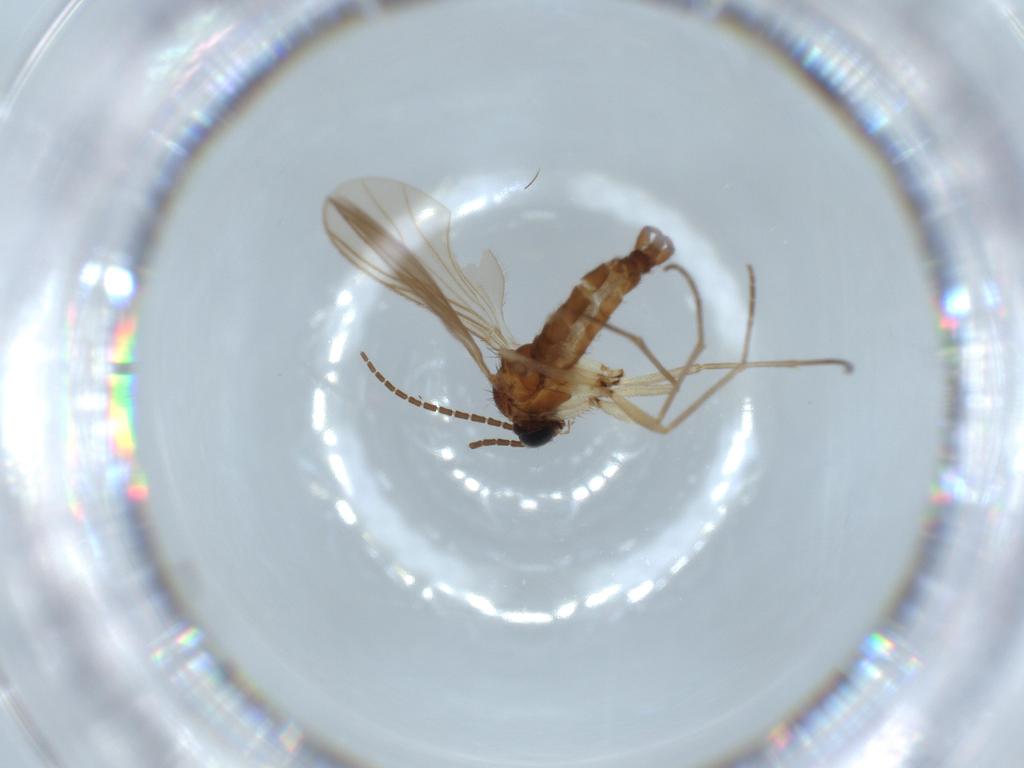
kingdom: Animalia
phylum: Arthropoda
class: Insecta
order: Diptera
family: Sciaridae
